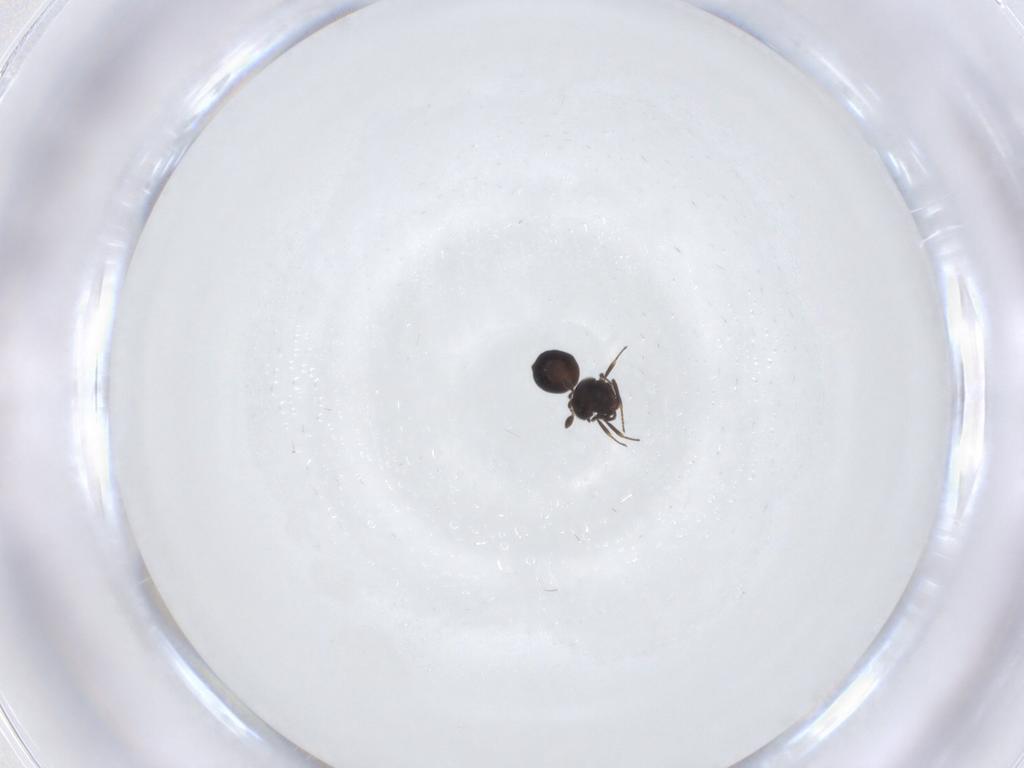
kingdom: Animalia
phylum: Arthropoda
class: Insecta
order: Hymenoptera
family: Scelionidae
